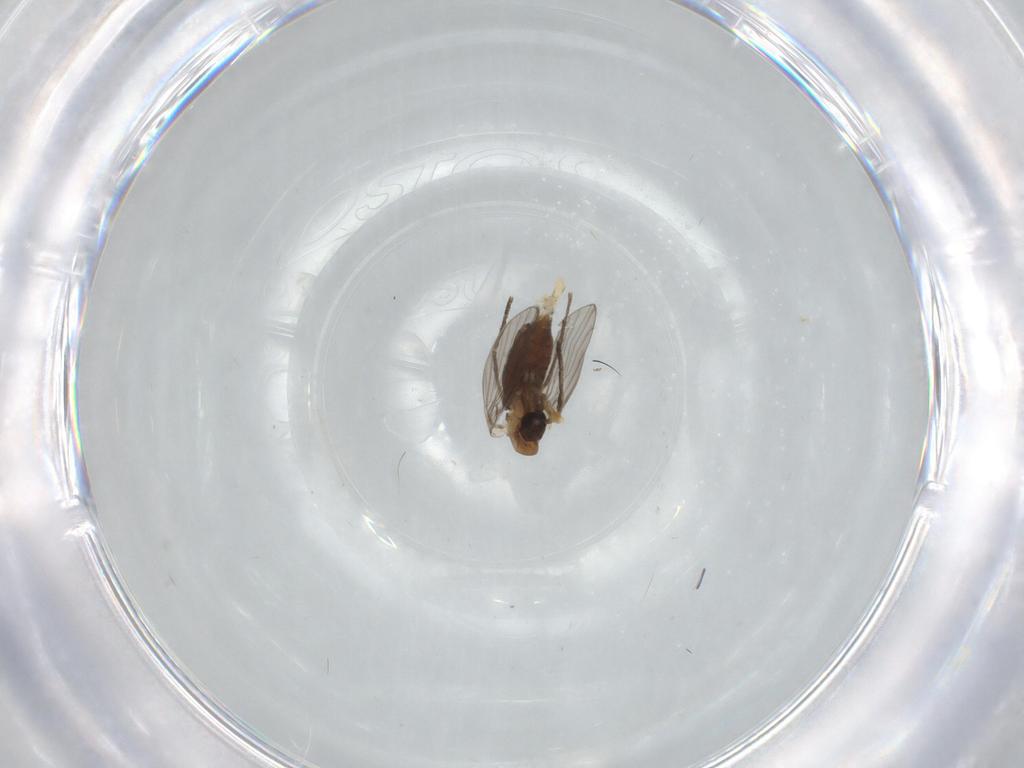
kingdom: Animalia
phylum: Arthropoda
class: Insecta
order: Diptera
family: Psychodidae
